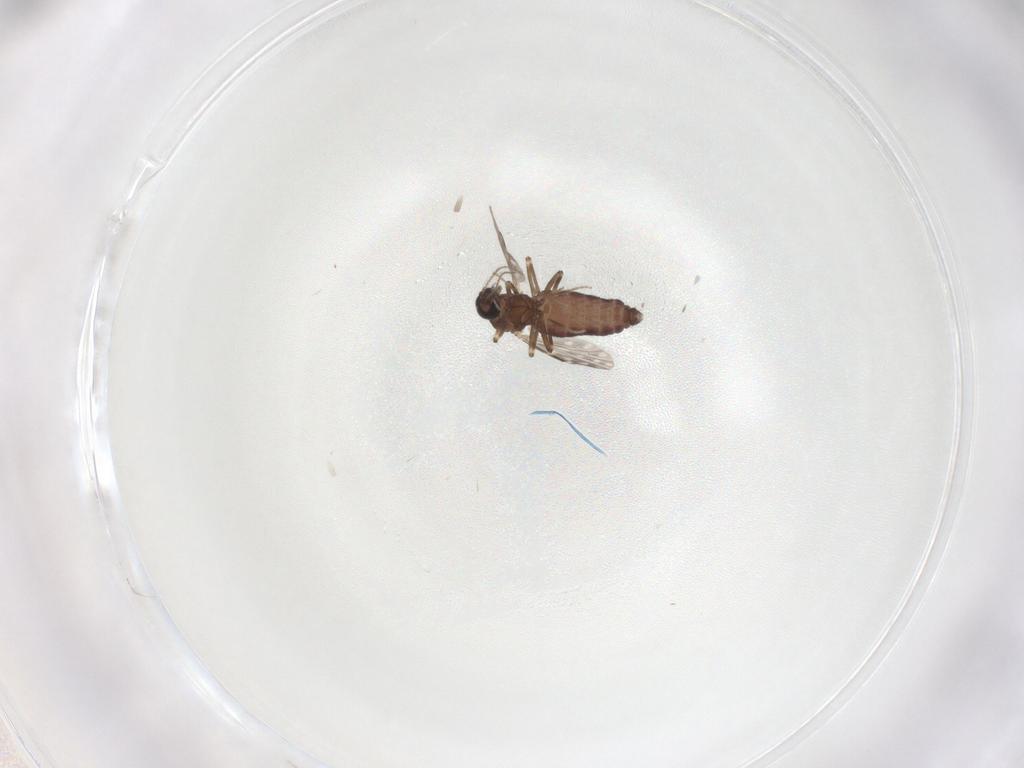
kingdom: Animalia
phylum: Arthropoda
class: Insecta
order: Diptera
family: Ceratopogonidae
